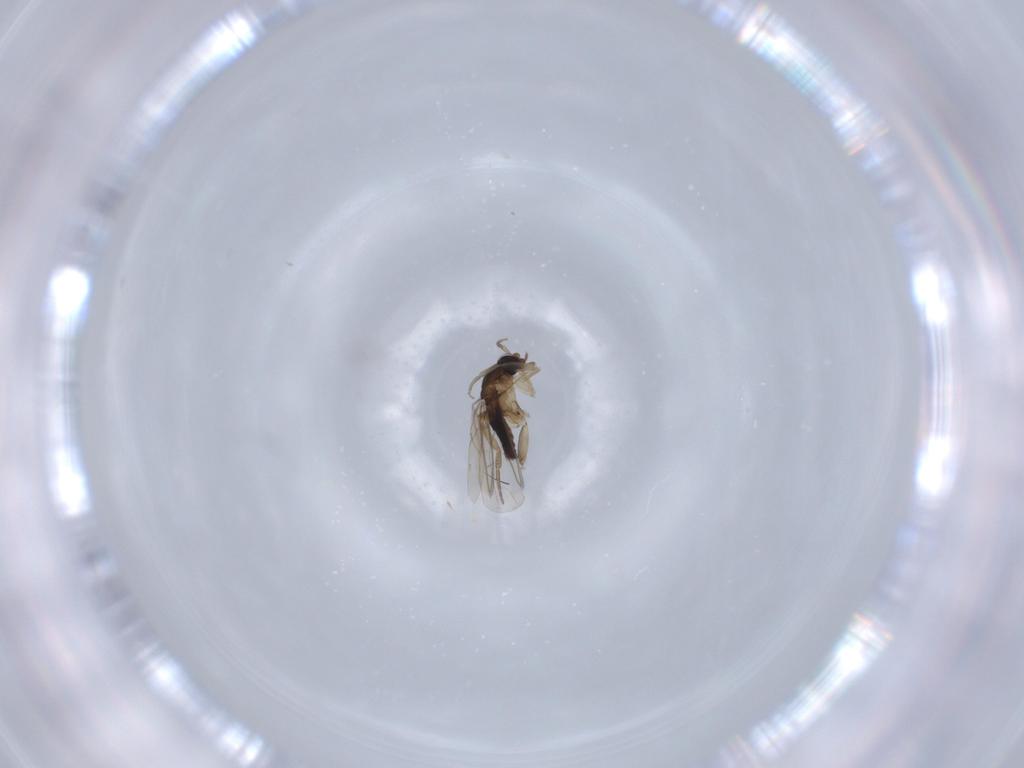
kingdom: Animalia
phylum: Arthropoda
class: Insecta
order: Diptera
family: Phoridae
